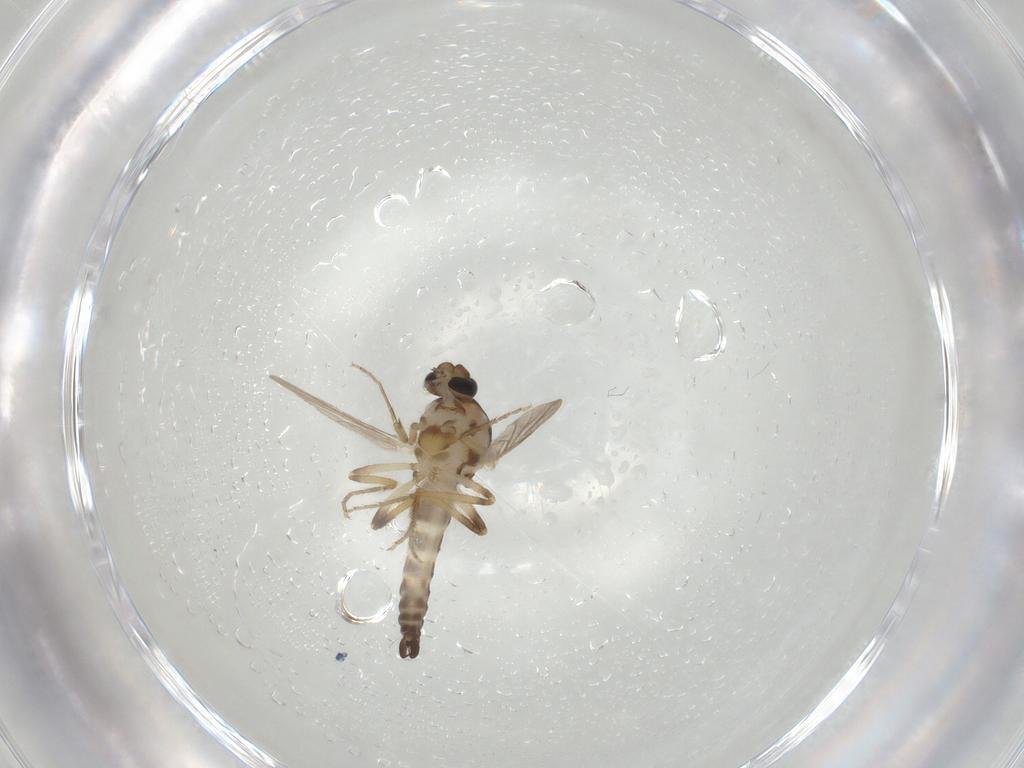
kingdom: Animalia
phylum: Arthropoda
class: Insecta
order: Diptera
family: Ceratopogonidae
